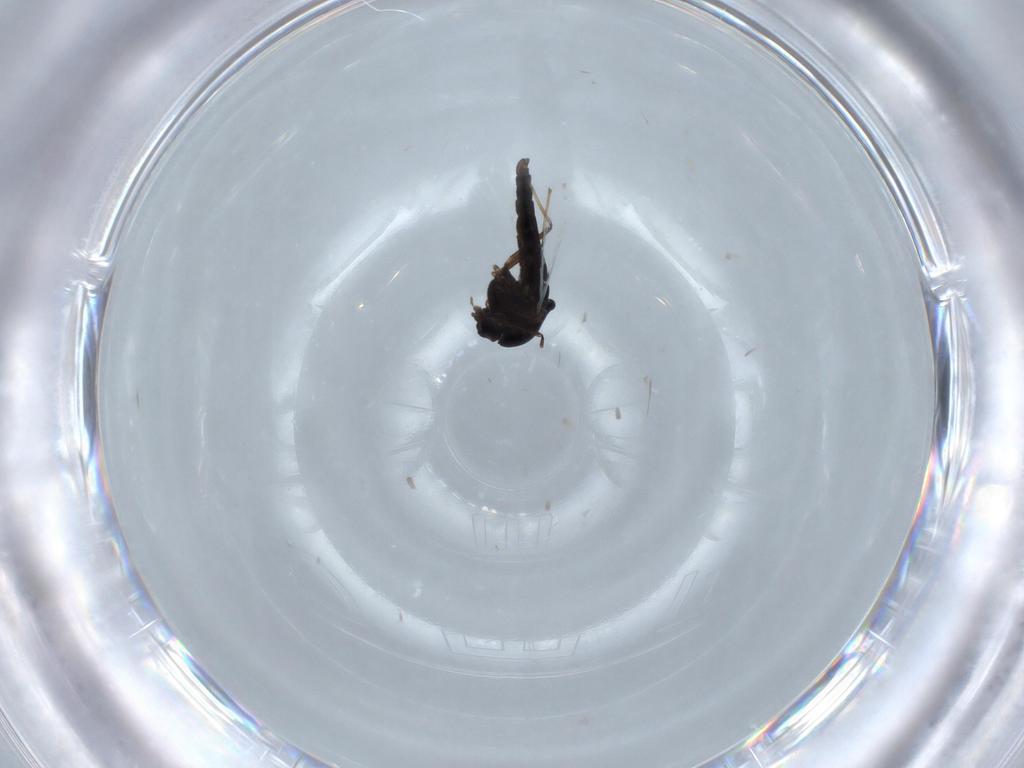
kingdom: Animalia
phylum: Arthropoda
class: Insecta
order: Diptera
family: Chironomidae
